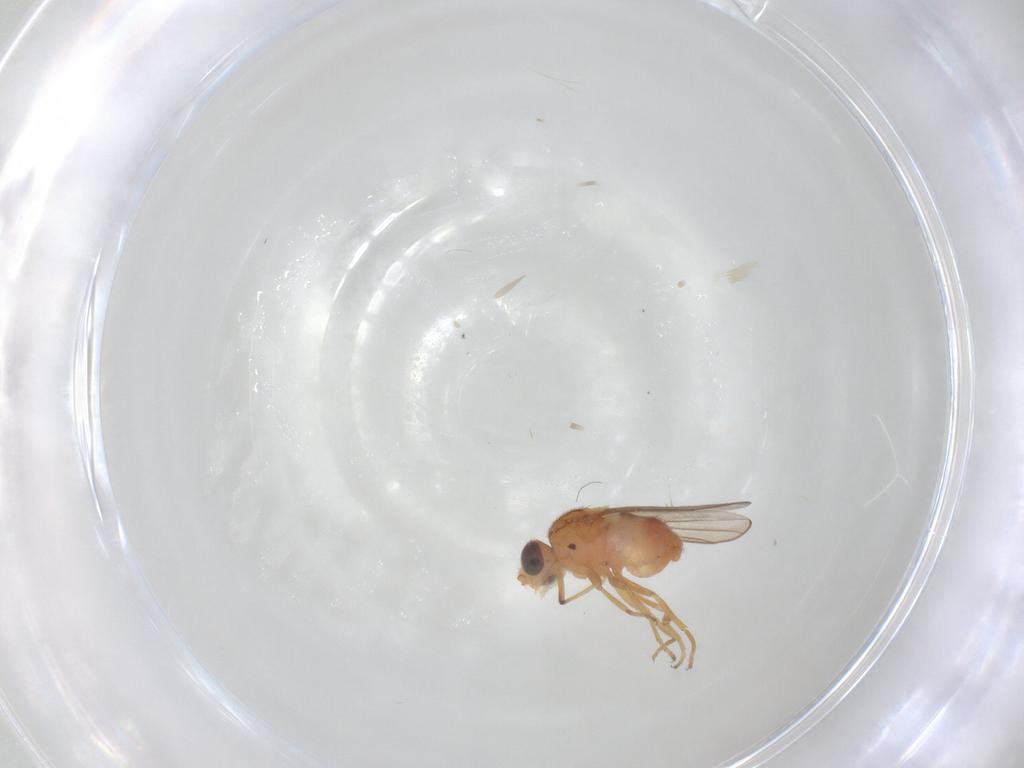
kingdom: Animalia
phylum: Arthropoda
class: Insecta
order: Diptera
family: Chloropidae
